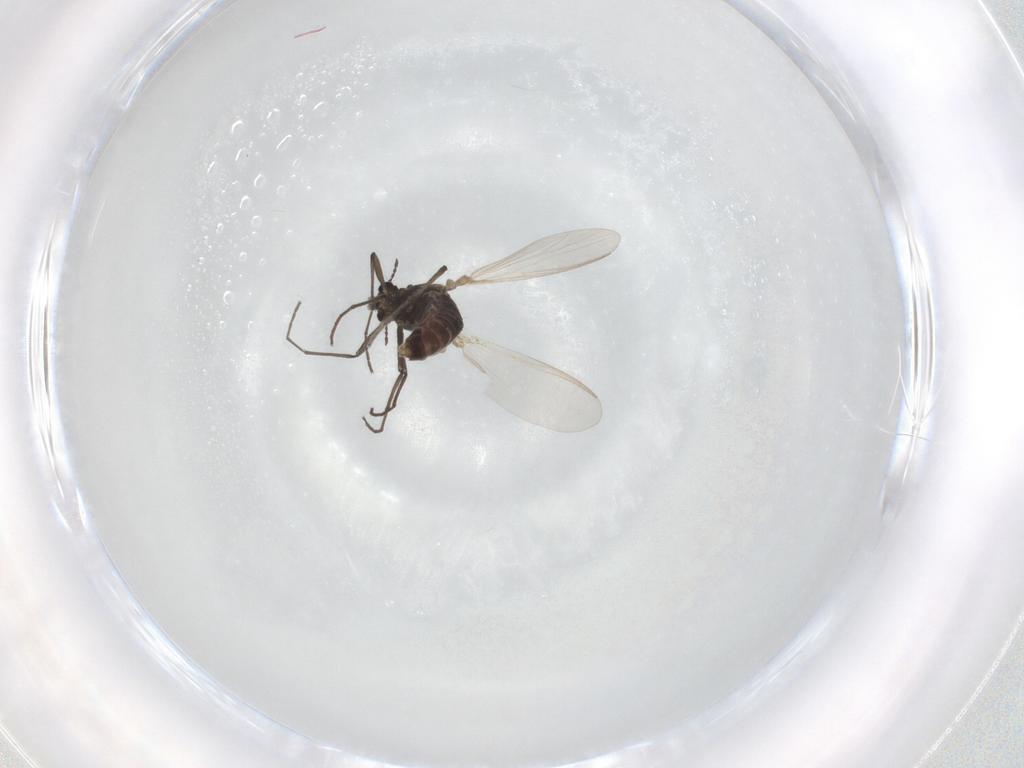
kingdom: Animalia
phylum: Arthropoda
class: Insecta
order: Diptera
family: Chironomidae
